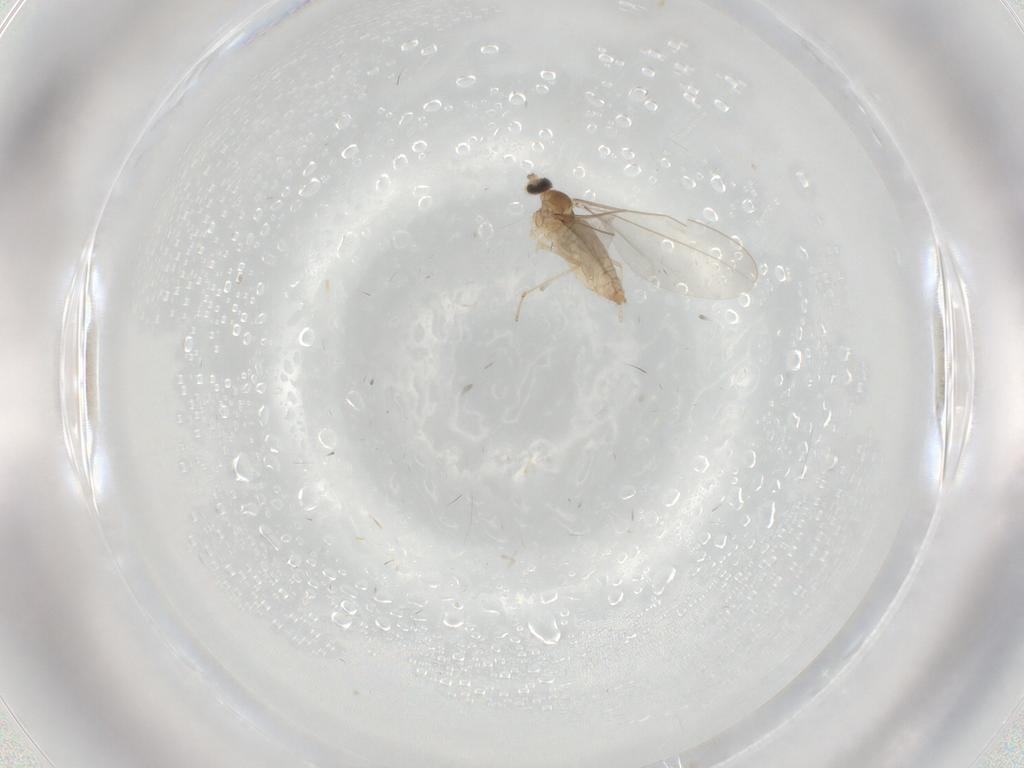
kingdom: Animalia
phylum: Arthropoda
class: Insecta
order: Diptera
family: Cecidomyiidae
